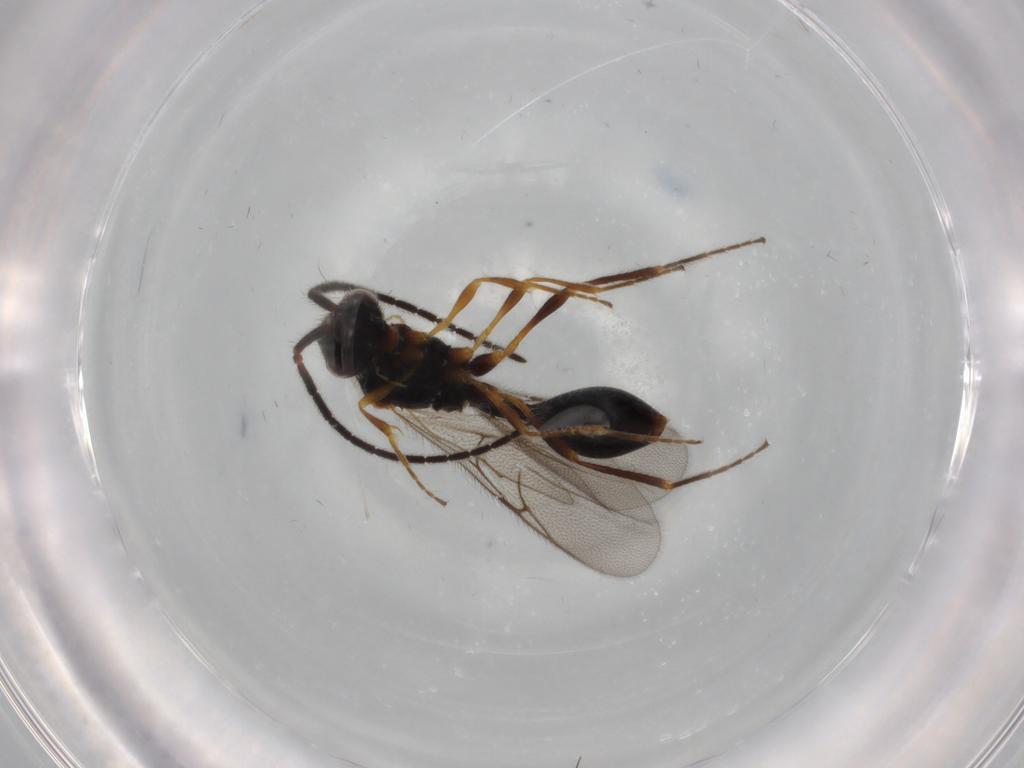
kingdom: Animalia
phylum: Arthropoda
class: Insecta
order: Hymenoptera
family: Diapriidae
